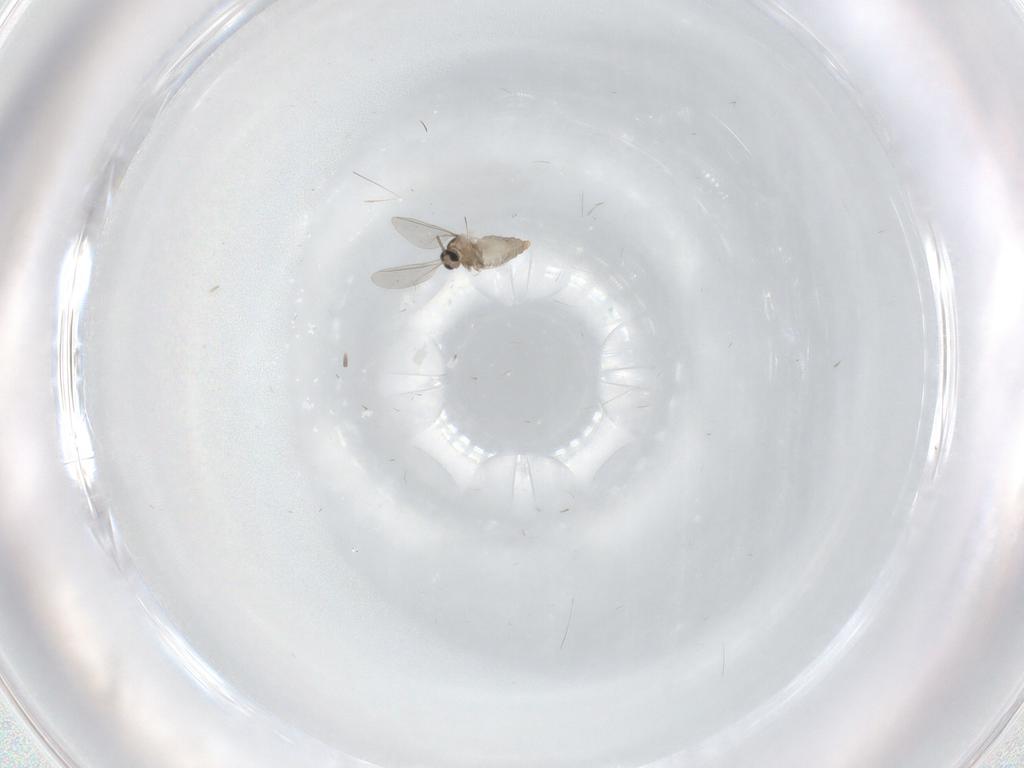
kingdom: Animalia
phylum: Arthropoda
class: Insecta
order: Diptera
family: Cecidomyiidae
